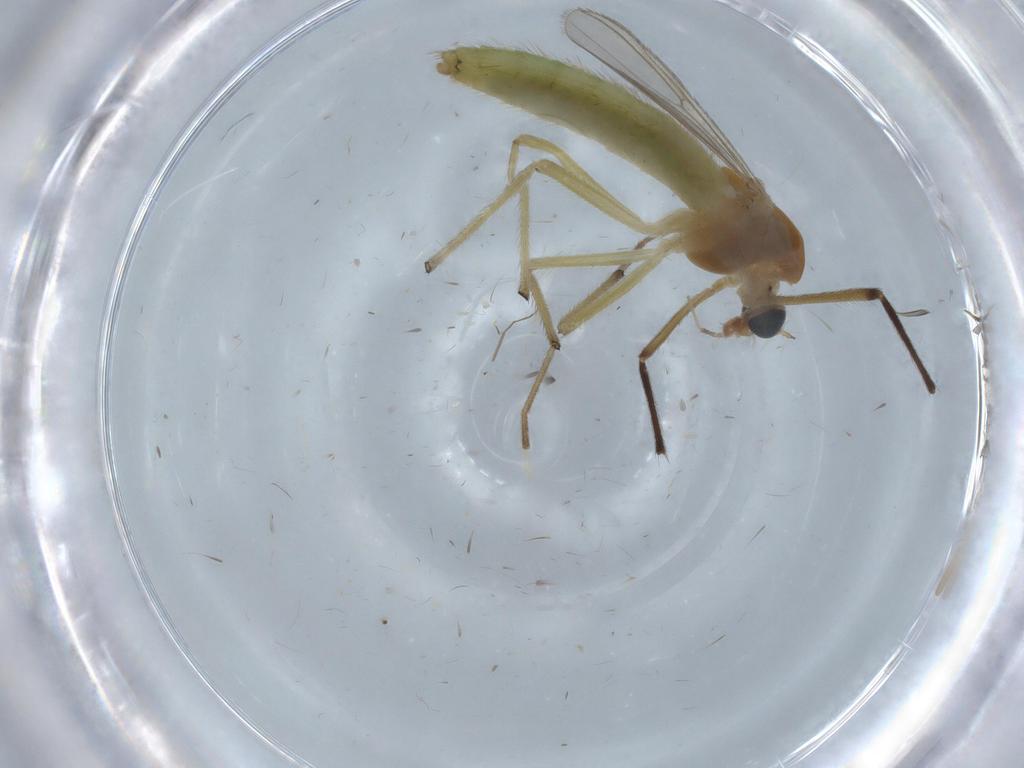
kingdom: Animalia
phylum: Arthropoda
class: Insecta
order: Diptera
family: Chironomidae
